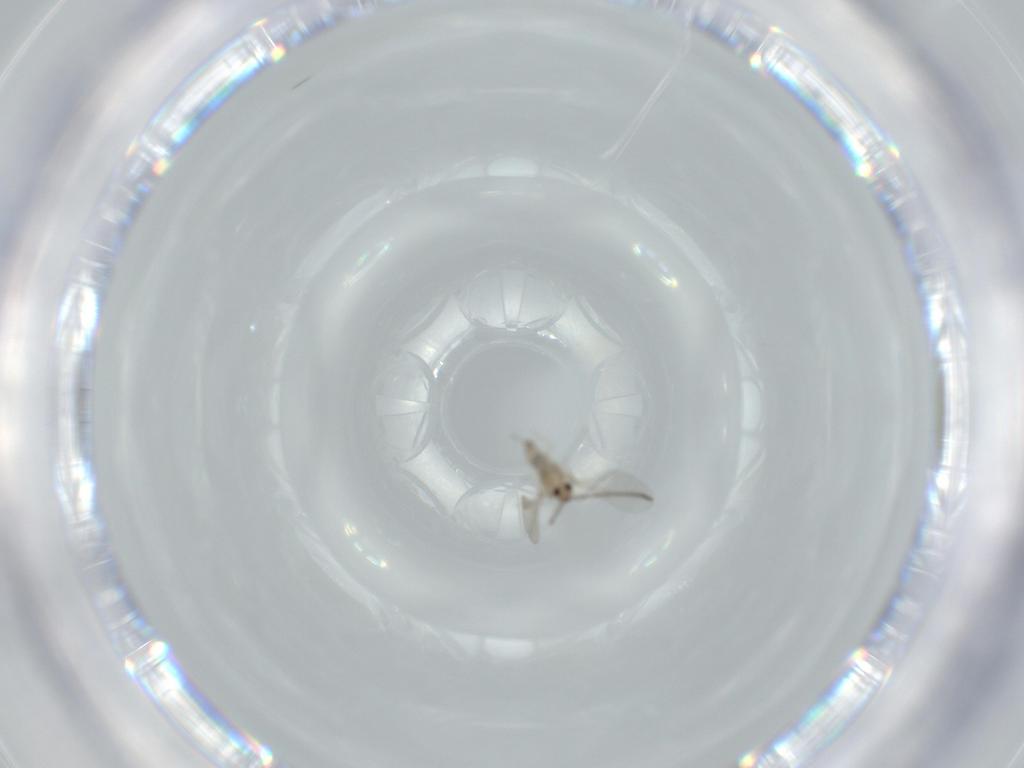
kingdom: Animalia
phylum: Arthropoda
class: Insecta
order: Diptera
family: Cecidomyiidae
